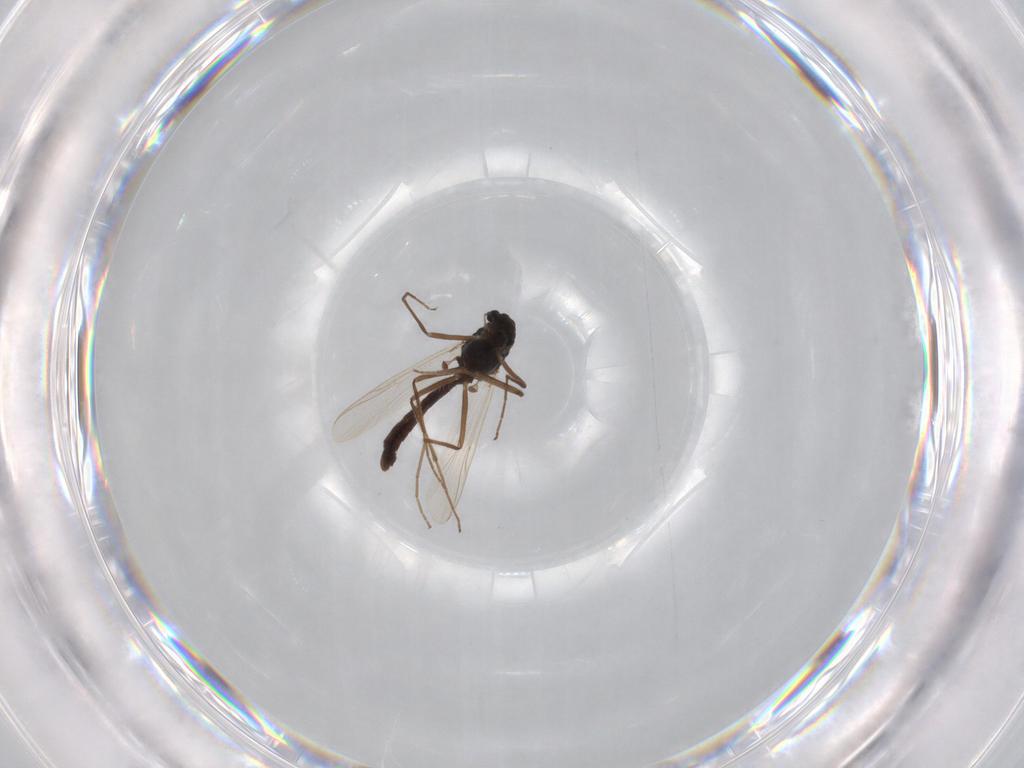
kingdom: Animalia
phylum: Arthropoda
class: Insecta
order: Diptera
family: Chironomidae
